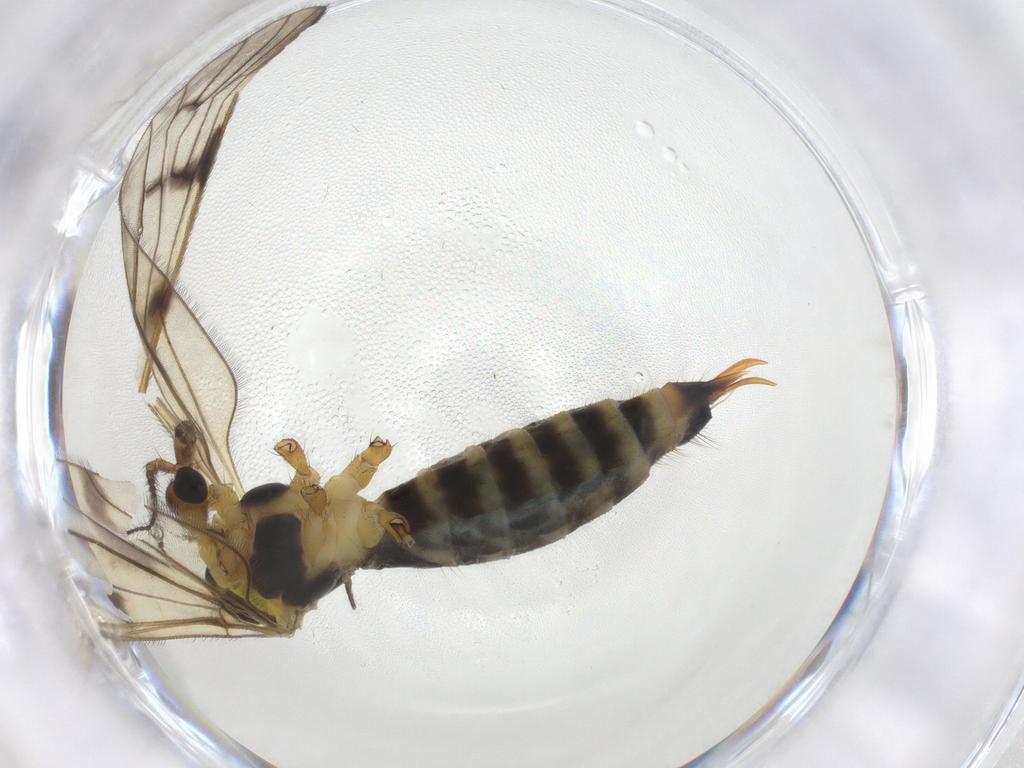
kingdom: Animalia
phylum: Arthropoda
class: Insecta
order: Diptera
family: Limoniidae
